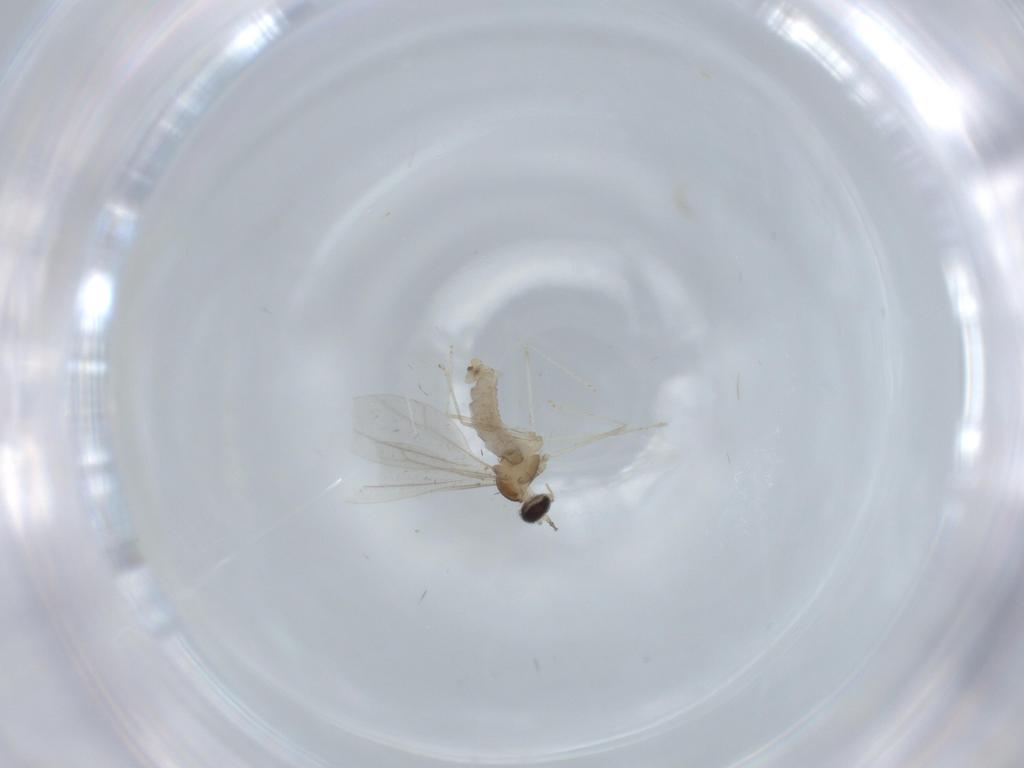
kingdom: Animalia
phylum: Arthropoda
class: Insecta
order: Diptera
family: Cecidomyiidae
